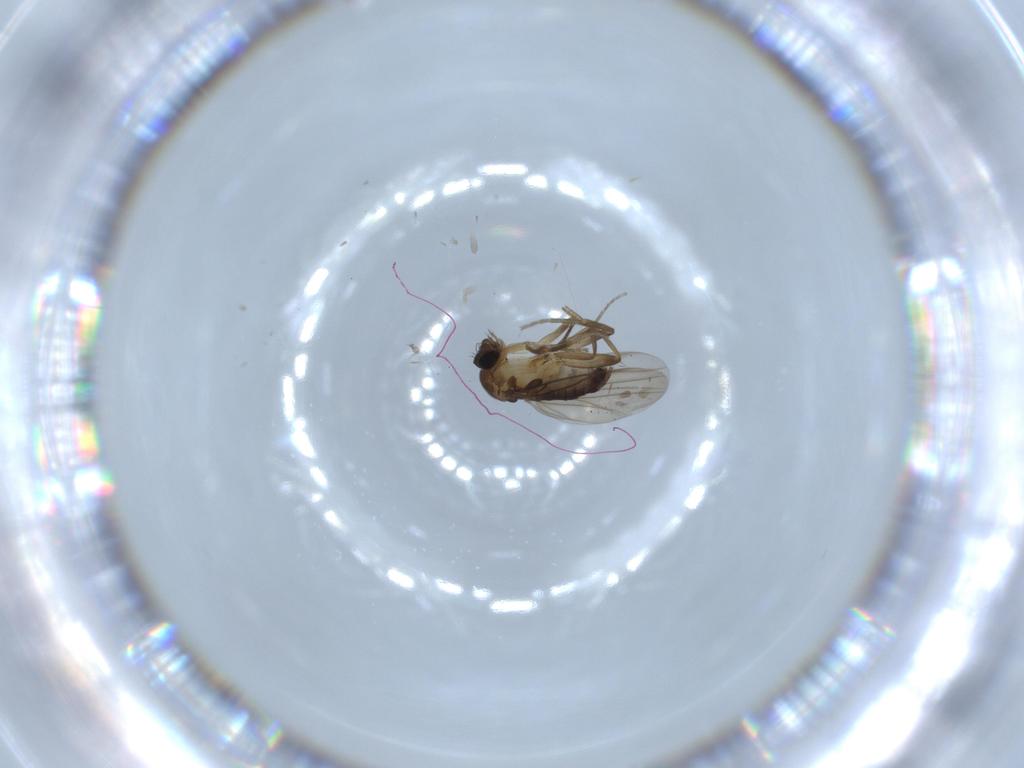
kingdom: Animalia
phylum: Arthropoda
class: Insecta
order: Diptera
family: Phoridae
